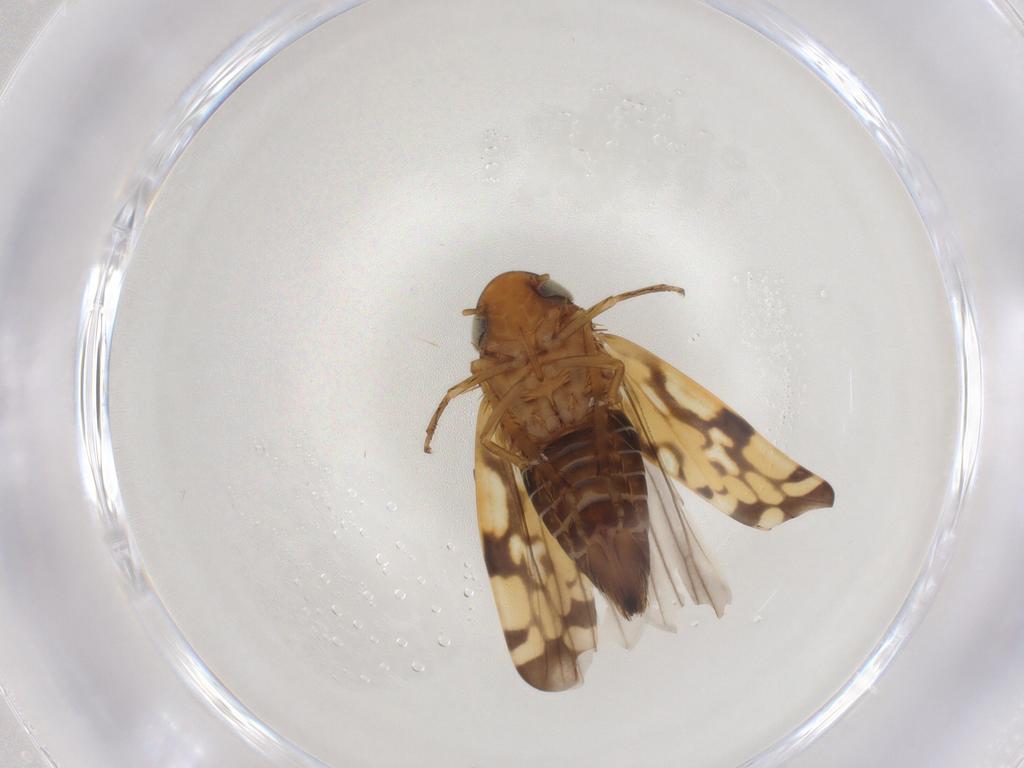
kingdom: Animalia
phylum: Arthropoda
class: Insecta
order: Hemiptera
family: Cicadellidae
